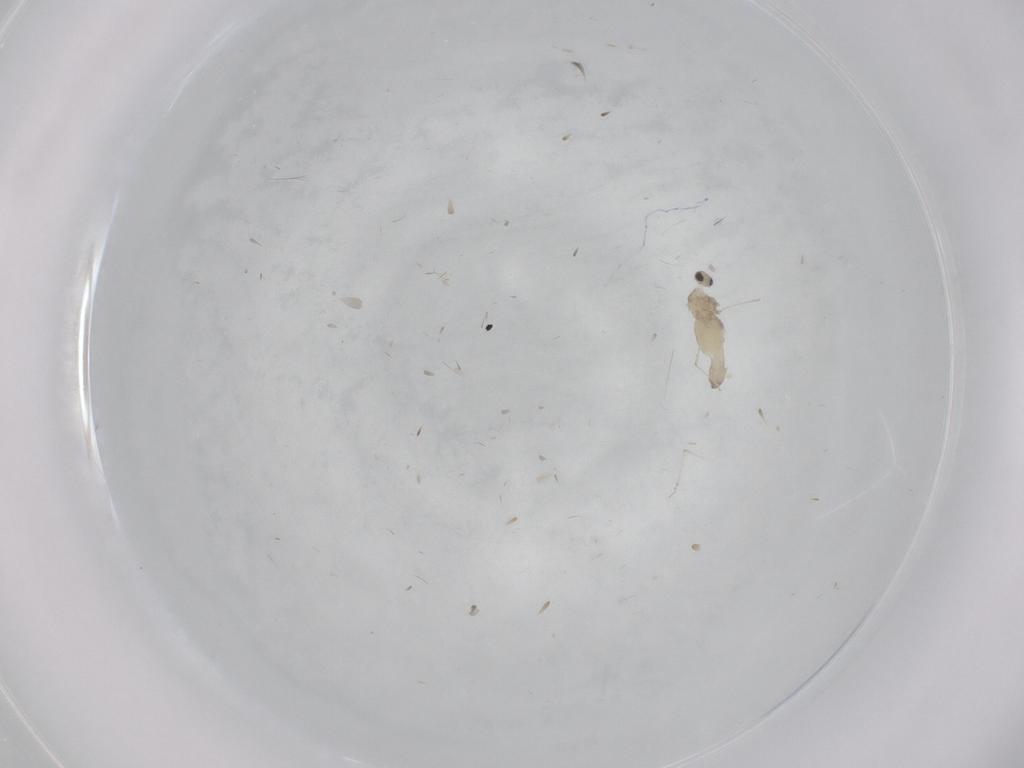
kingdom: Animalia
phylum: Arthropoda
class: Insecta
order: Diptera
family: Cecidomyiidae
